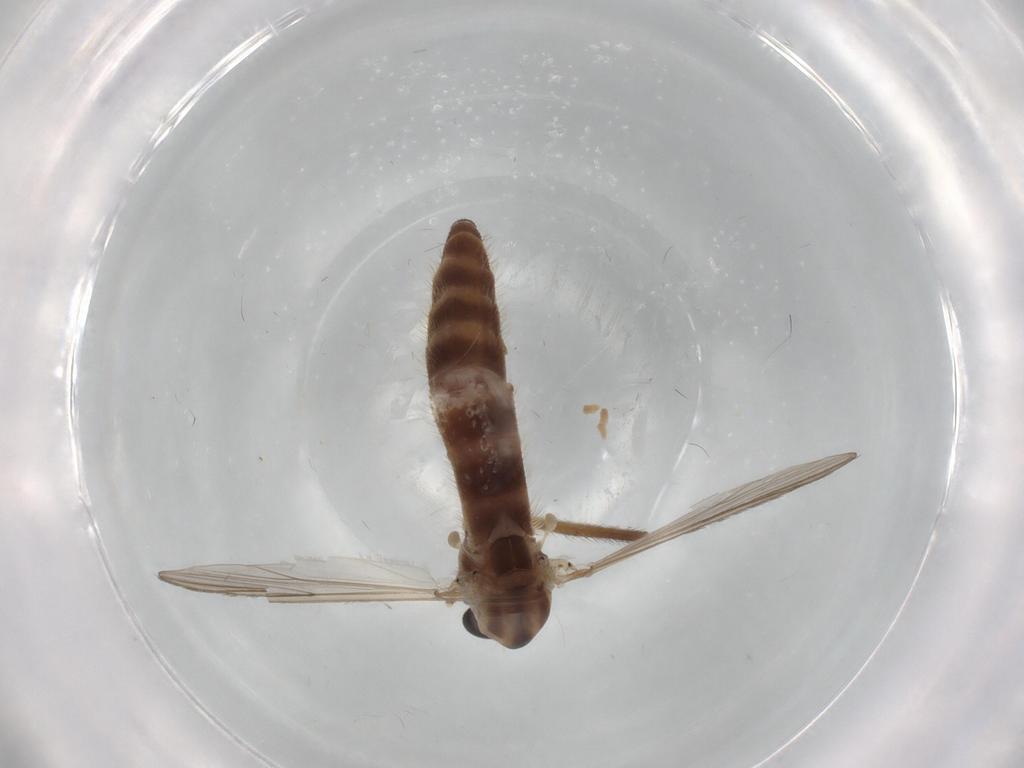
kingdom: Animalia
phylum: Arthropoda
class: Insecta
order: Diptera
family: Chironomidae
